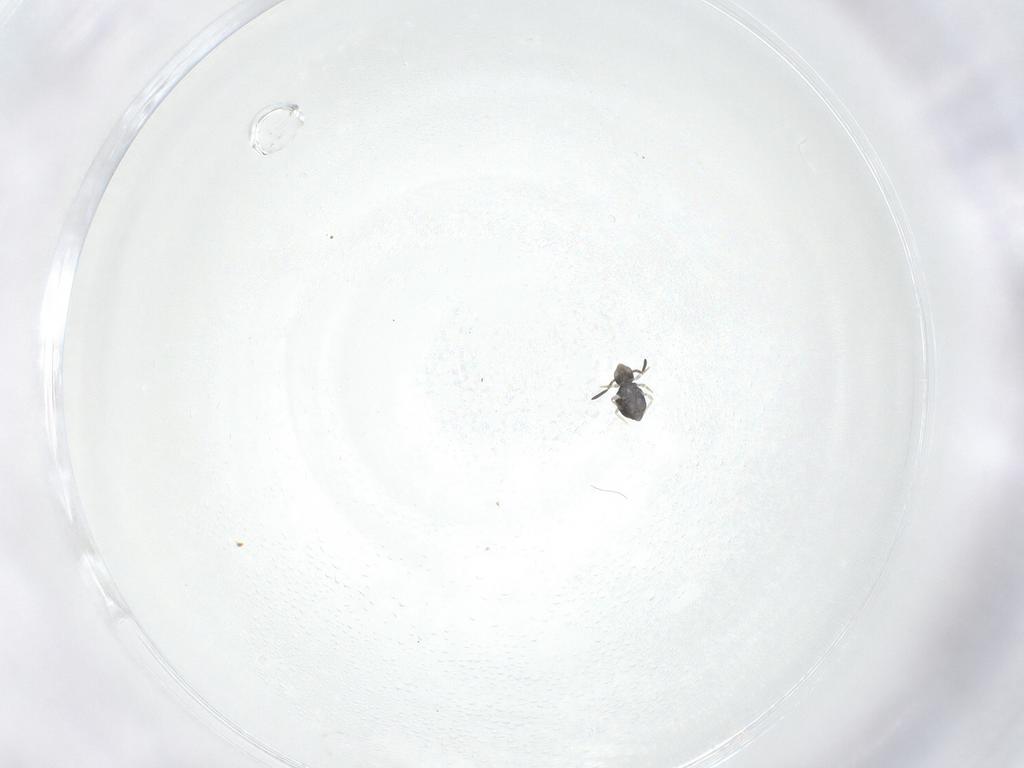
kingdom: Animalia
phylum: Arthropoda
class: Collembola
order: Symphypleona
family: Katiannidae
